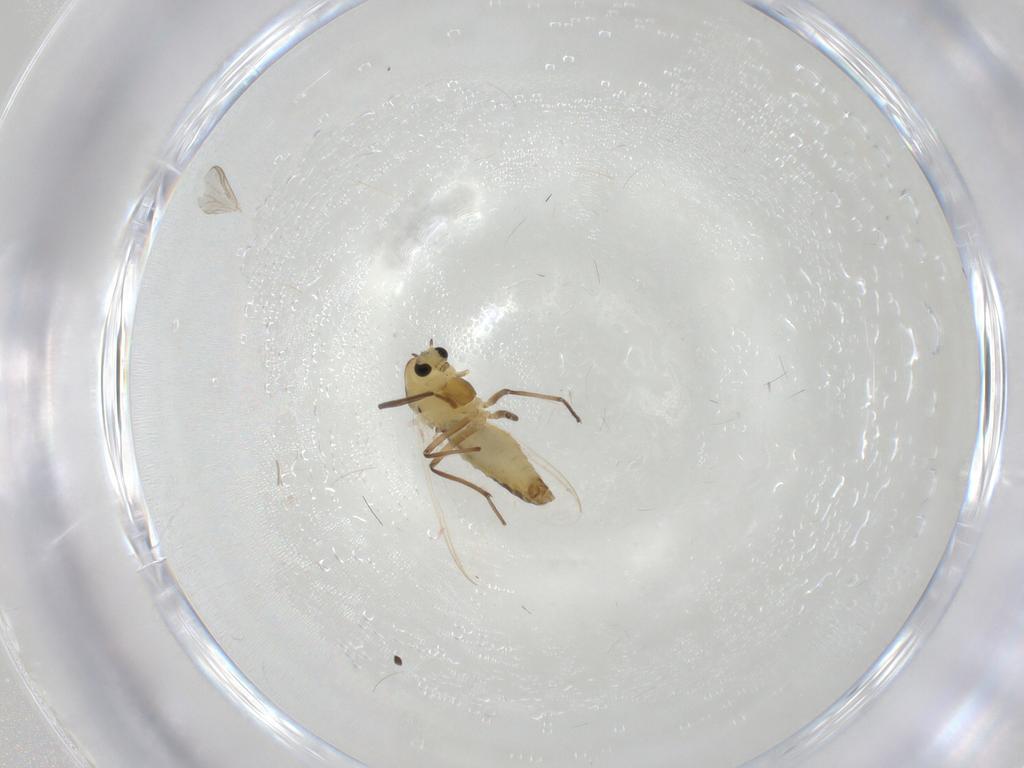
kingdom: Animalia
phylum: Arthropoda
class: Insecta
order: Diptera
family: Chironomidae
